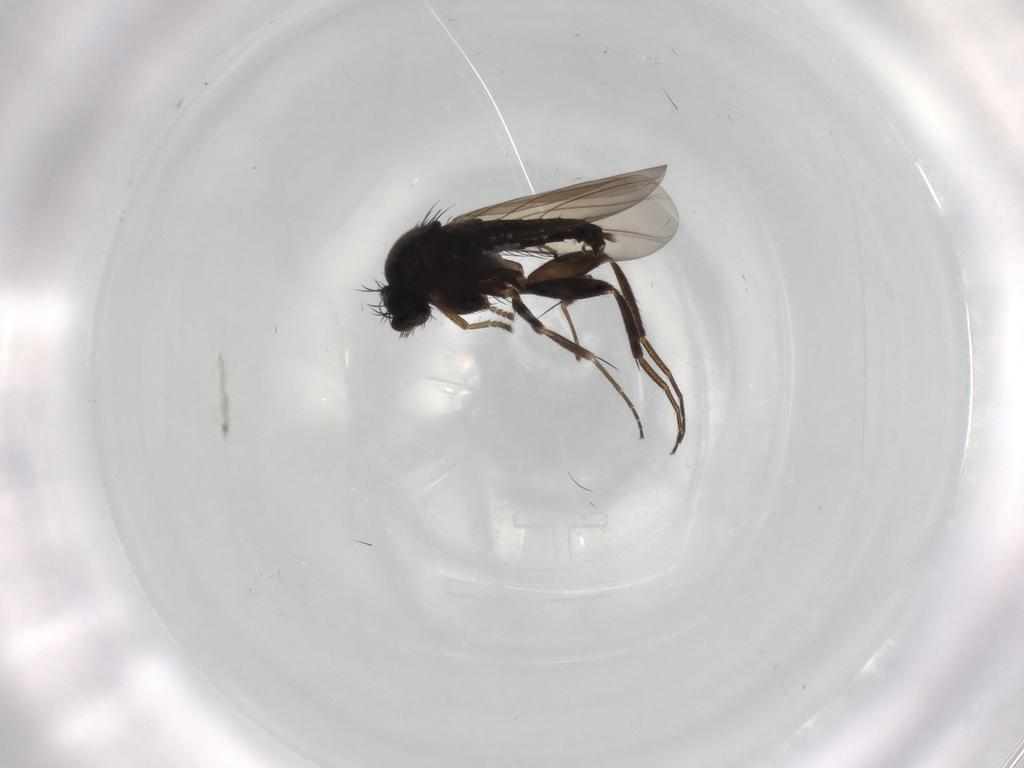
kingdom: Animalia
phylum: Arthropoda
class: Insecta
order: Diptera
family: Phoridae
